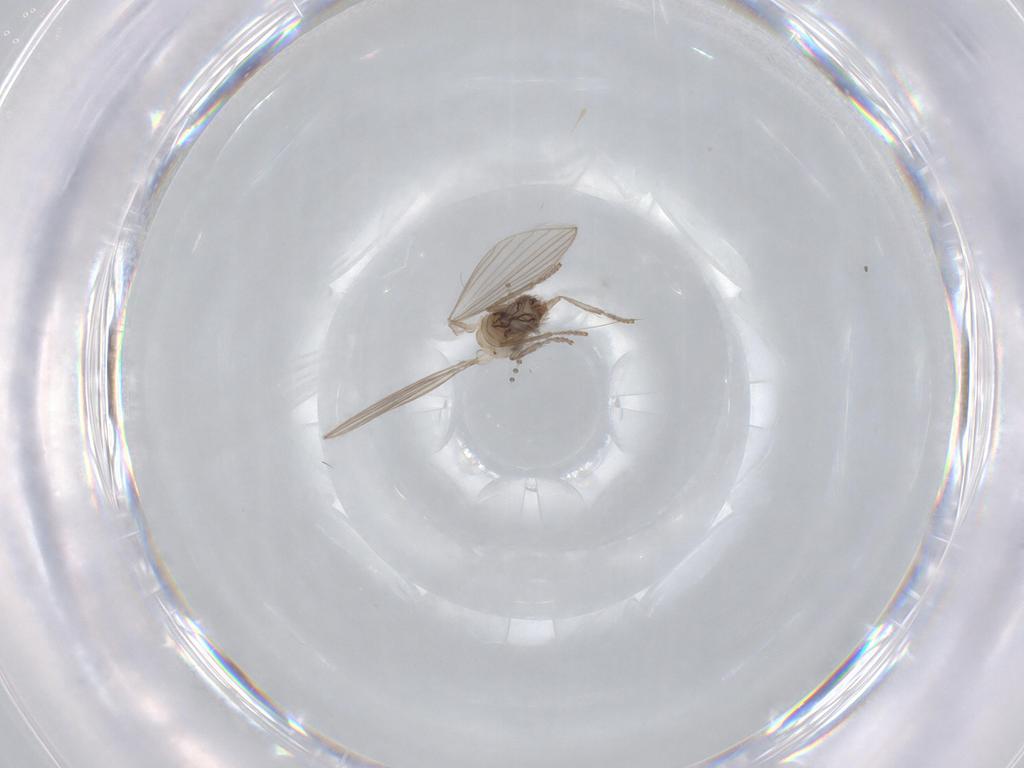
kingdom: Animalia
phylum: Arthropoda
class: Insecta
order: Diptera
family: Psychodidae
